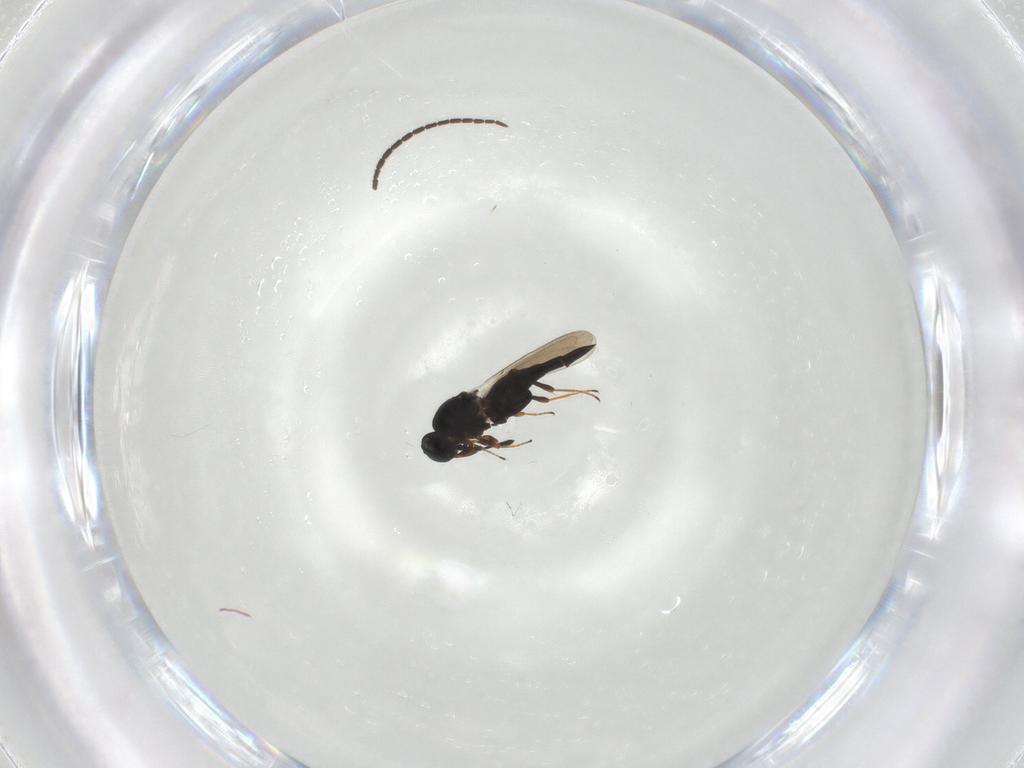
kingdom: Animalia
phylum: Arthropoda
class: Insecta
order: Hymenoptera
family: Platygastridae
